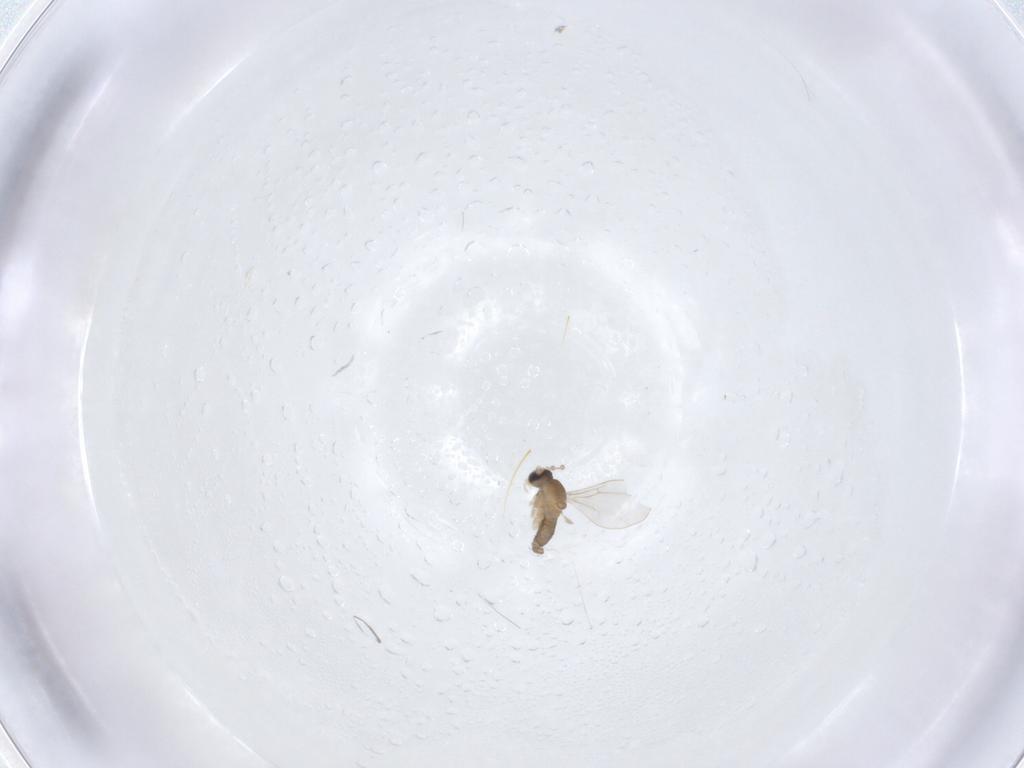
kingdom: Animalia
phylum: Arthropoda
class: Insecta
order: Diptera
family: Cecidomyiidae
